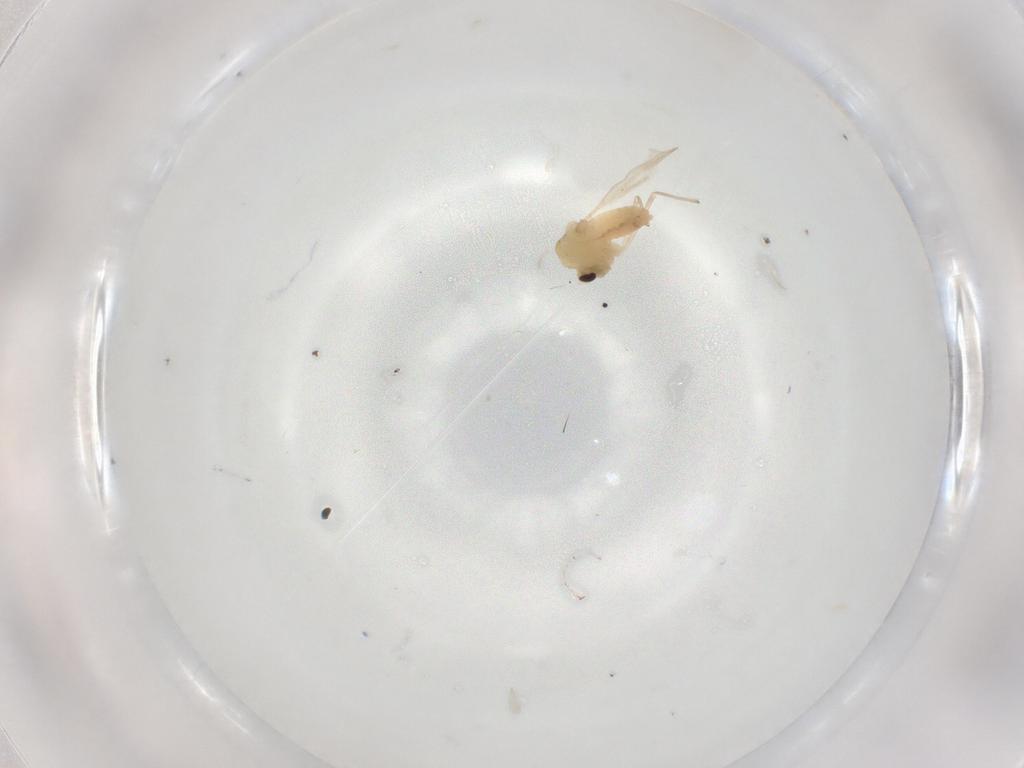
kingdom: Animalia
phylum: Arthropoda
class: Insecta
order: Diptera
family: Chironomidae
